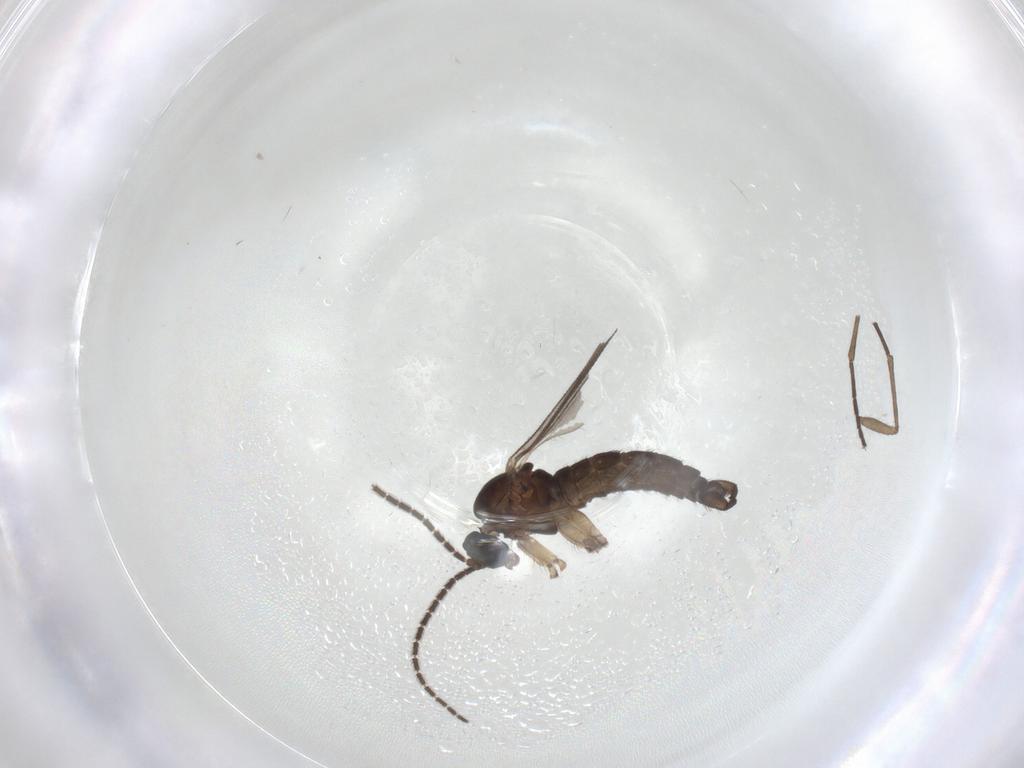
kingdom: Animalia
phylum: Arthropoda
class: Insecta
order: Diptera
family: Sciaridae
